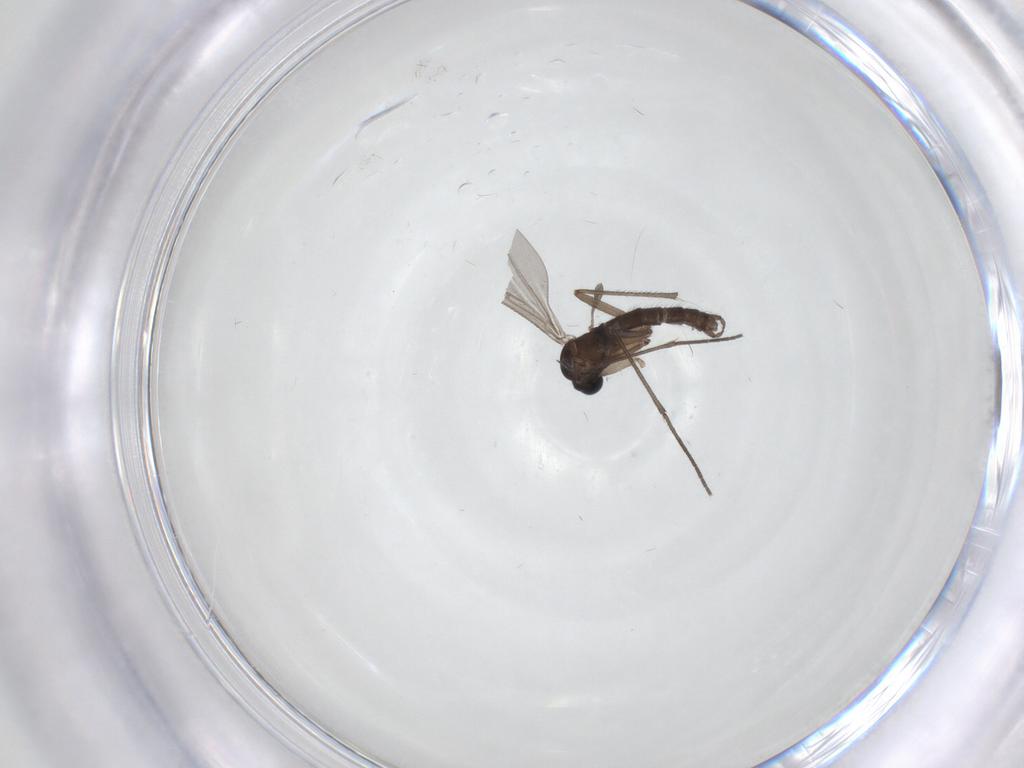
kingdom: Animalia
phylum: Arthropoda
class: Insecta
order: Diptera
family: Sciaridae
